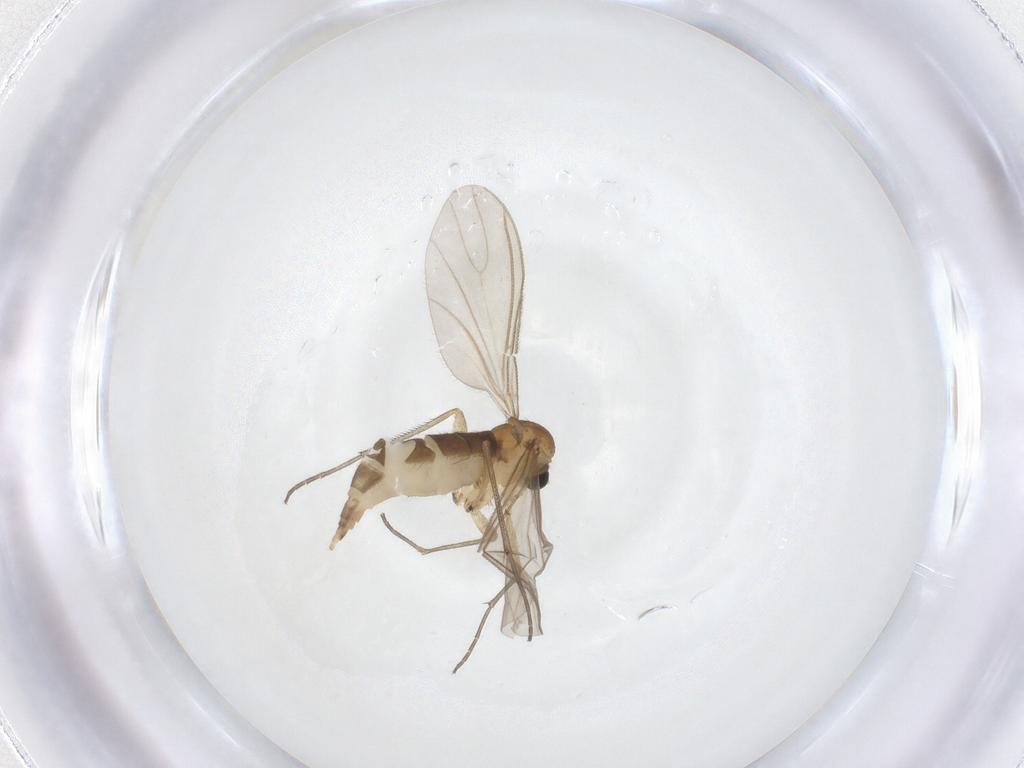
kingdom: Animalia
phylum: Arthropoda
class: Insecta
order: Diptera
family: Sciaridae
